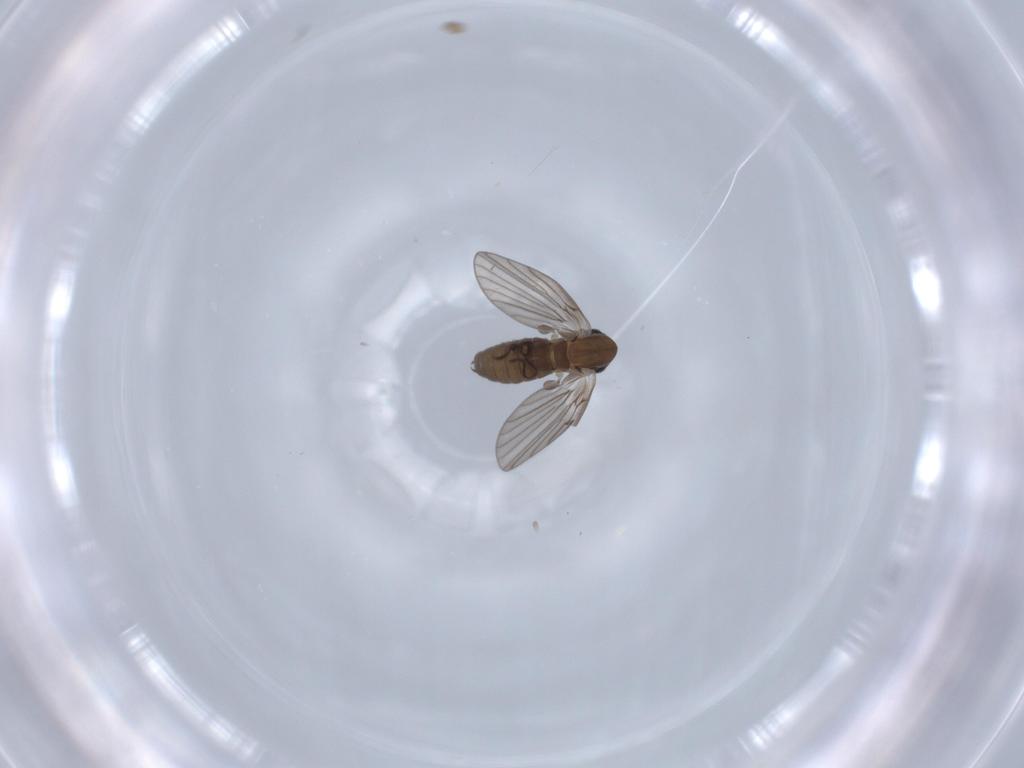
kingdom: Animalia
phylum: Arthropoda
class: Insecta
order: Diptera
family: Psychodidae
